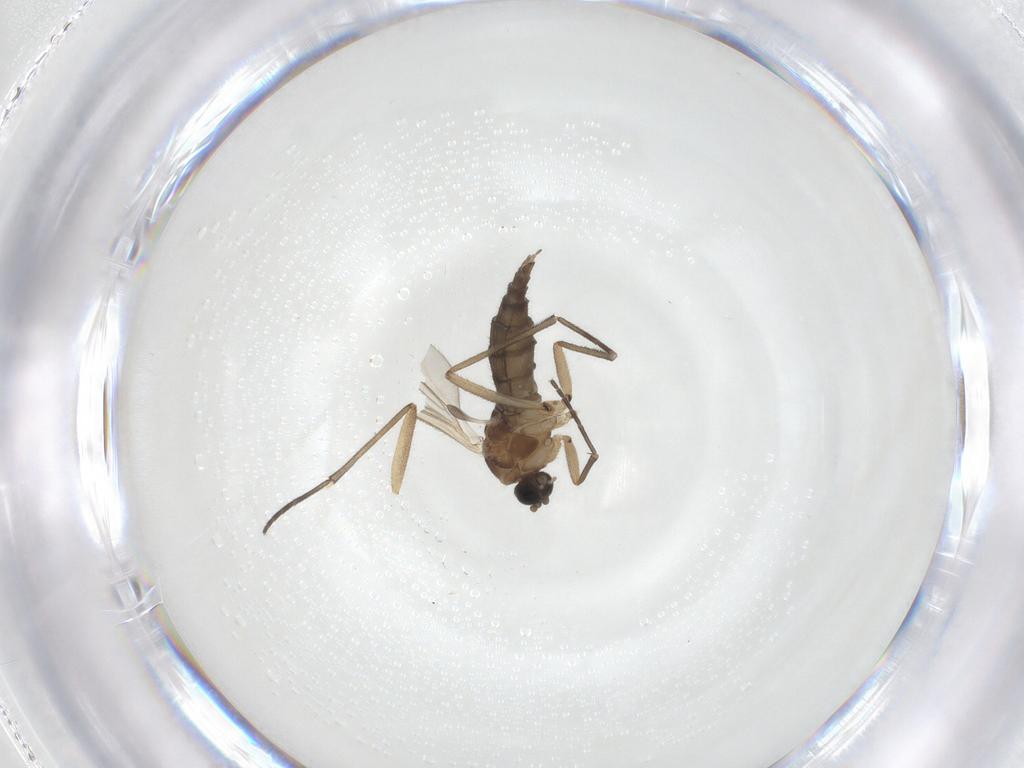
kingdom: Animalia
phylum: Arthropoda
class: Insecta
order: Diptera
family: Sciaridae
